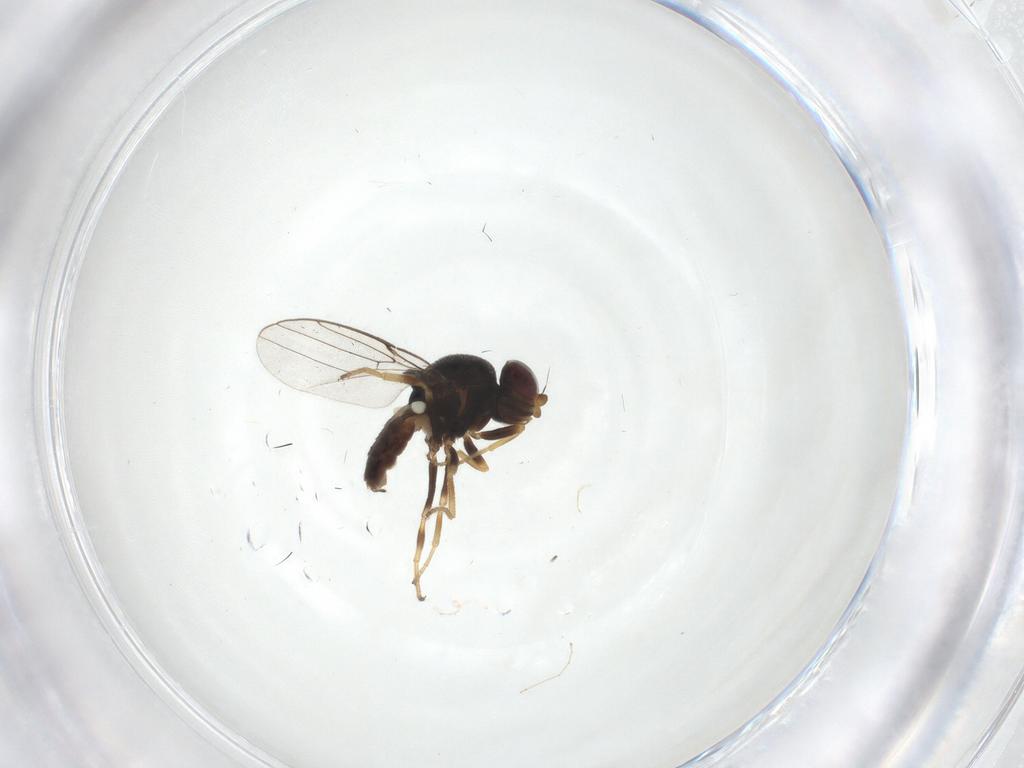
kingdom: Animalia
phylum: Arthropoda
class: Insecta
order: Diptera
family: Chloropidae
